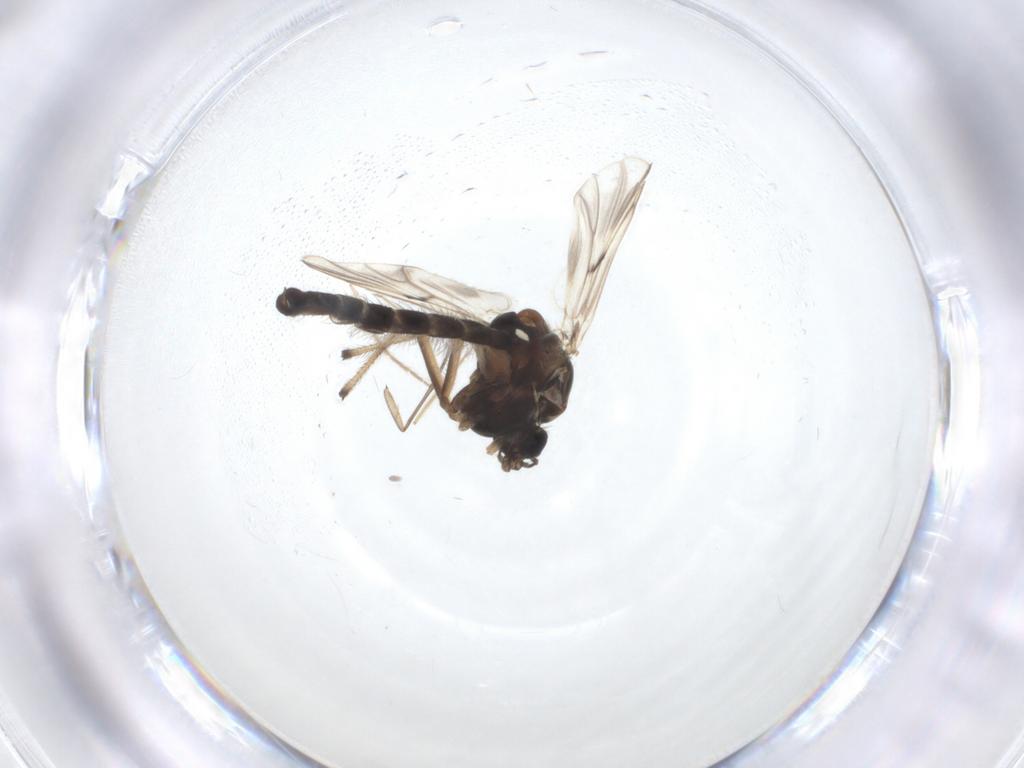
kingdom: Animalia
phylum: Arthropoda
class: Insecta
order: Diptera
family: Chironomidae
